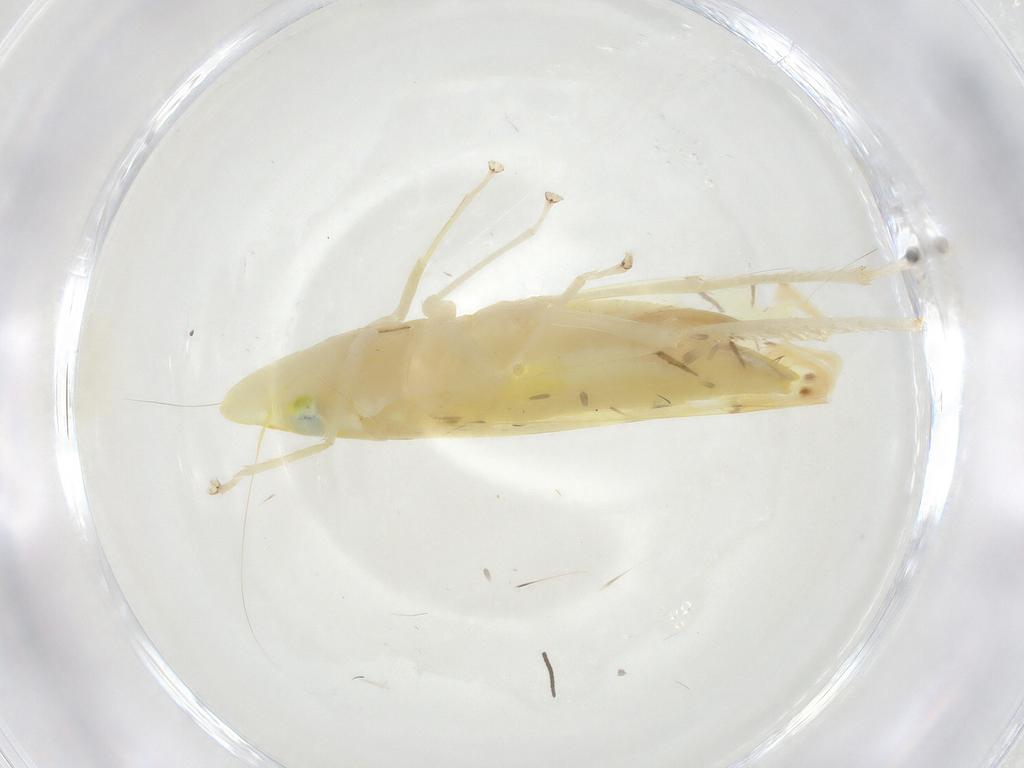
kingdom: Animalia
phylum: Arthropoda
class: Insecta
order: Hemiptera
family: Cicadellidae
